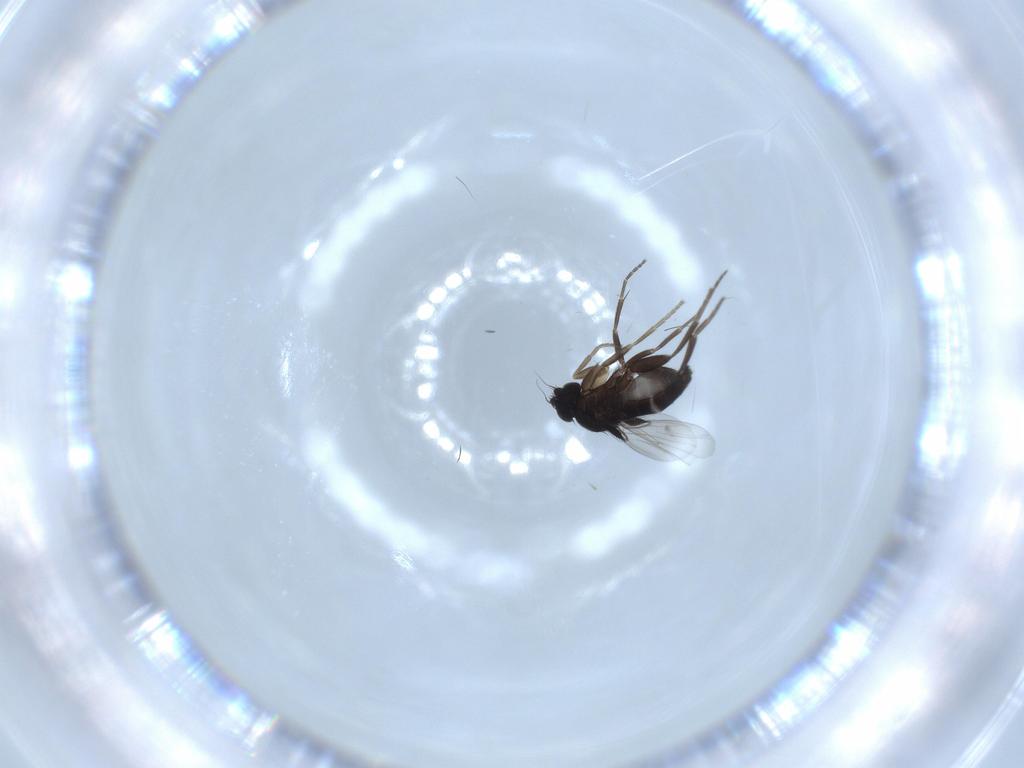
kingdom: Animalia
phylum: Arthropoda
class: Insecta
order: Diptera
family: Phoridae
